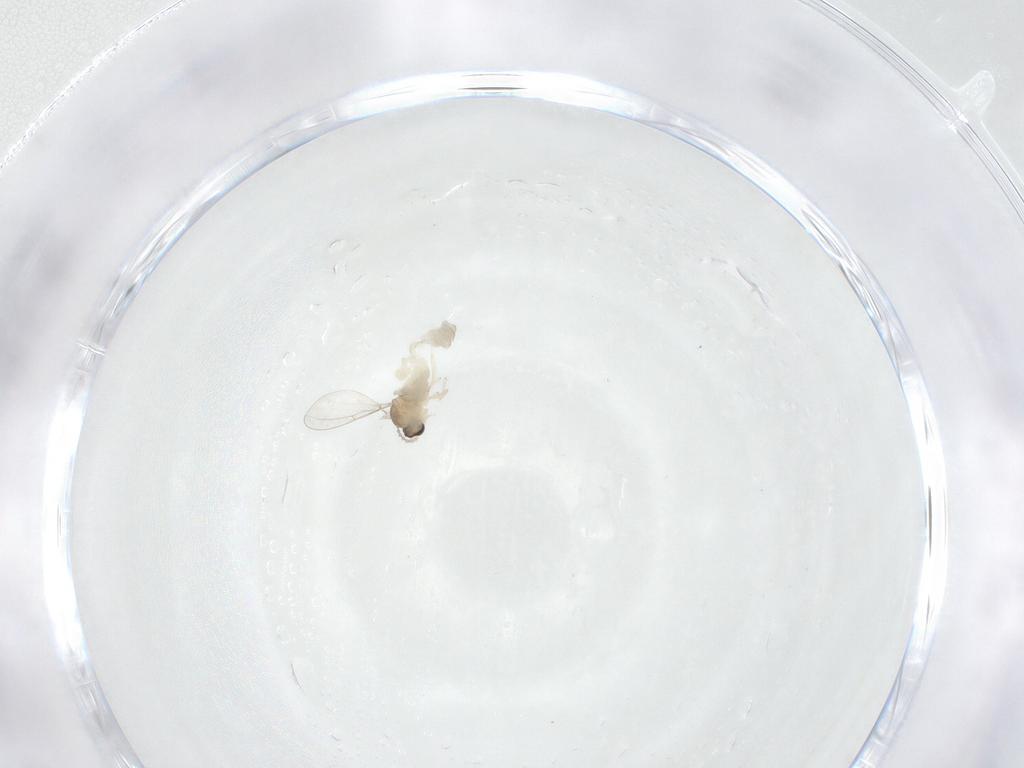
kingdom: Animalia
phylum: Arthropoda
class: Insecta
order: Diptera
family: Cecidomyiidae
